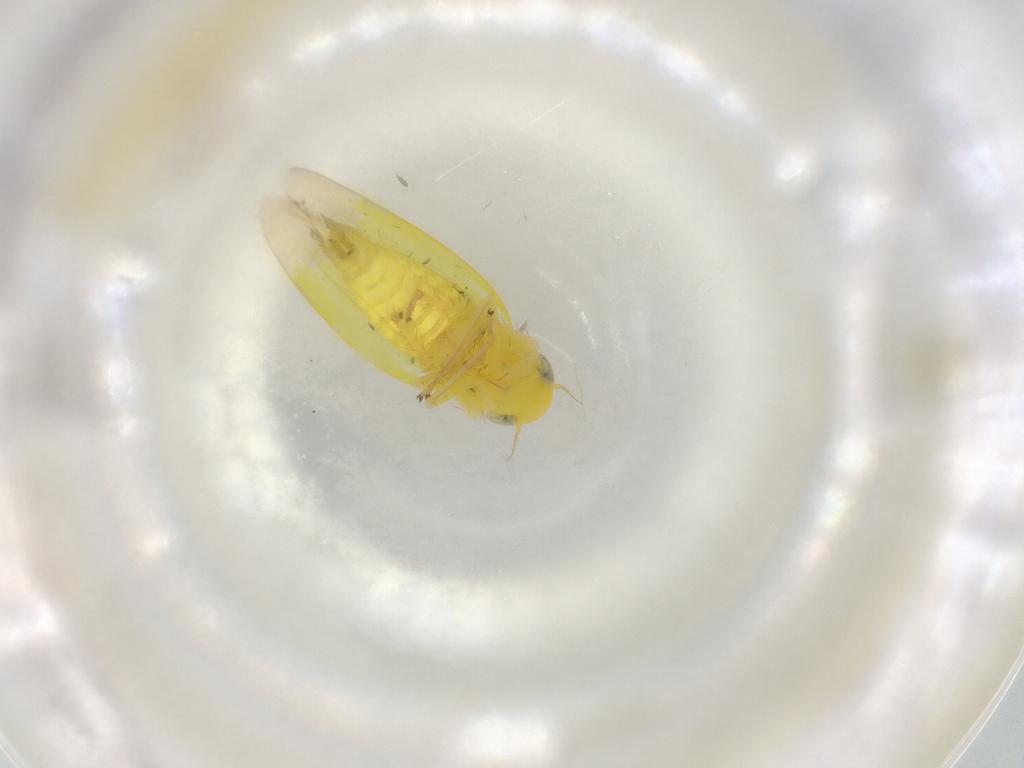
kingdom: Animalia
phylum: Arthropoda
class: Insecta
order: Hemiptera
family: Cicadellidae
